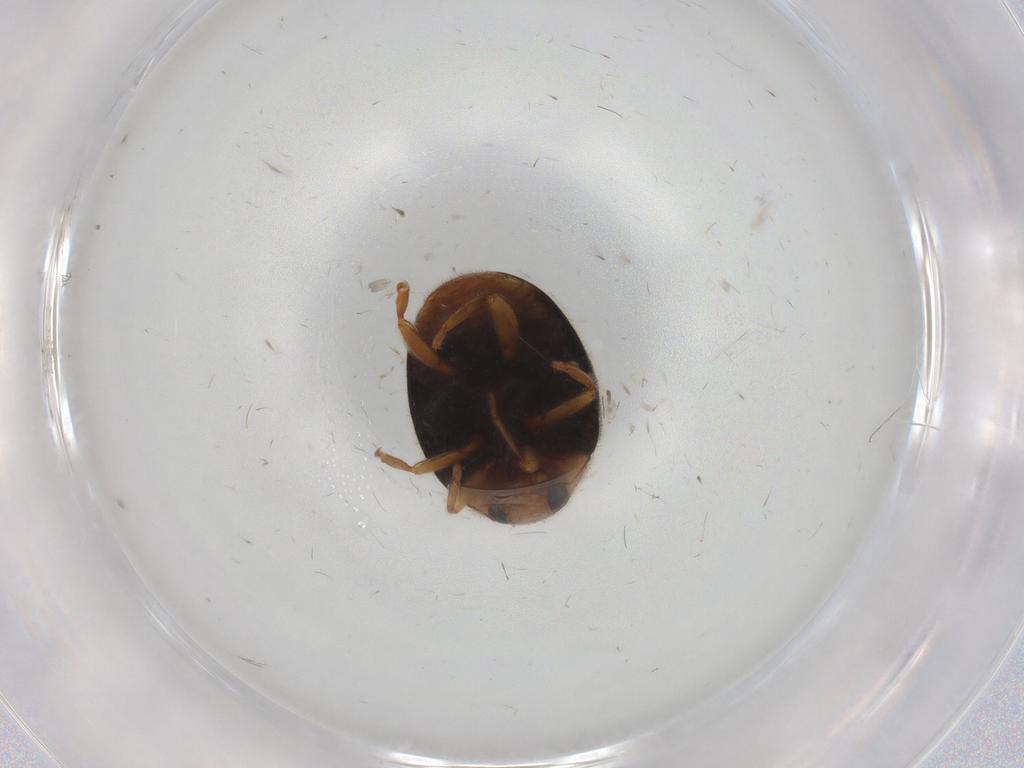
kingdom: Animalia
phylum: Arthropoda
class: Insecta
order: Coleoptera
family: Coccinellidae
